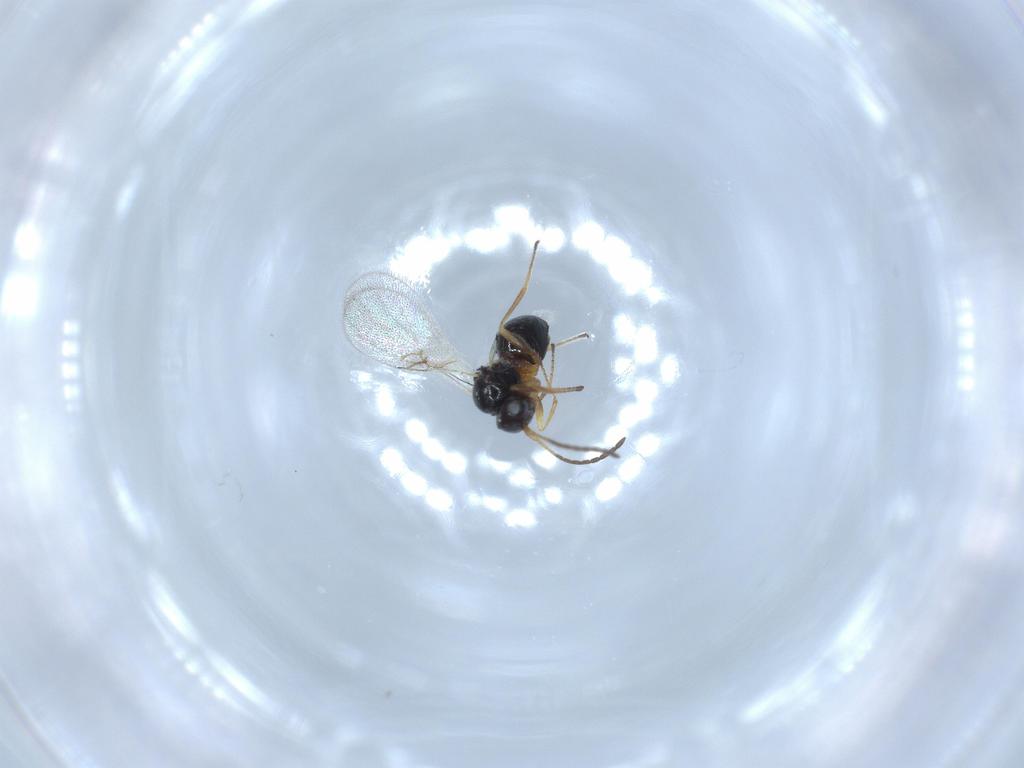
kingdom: Animalia
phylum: Arthropoda
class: Insecta
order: Hymenoptera
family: Figitidae
